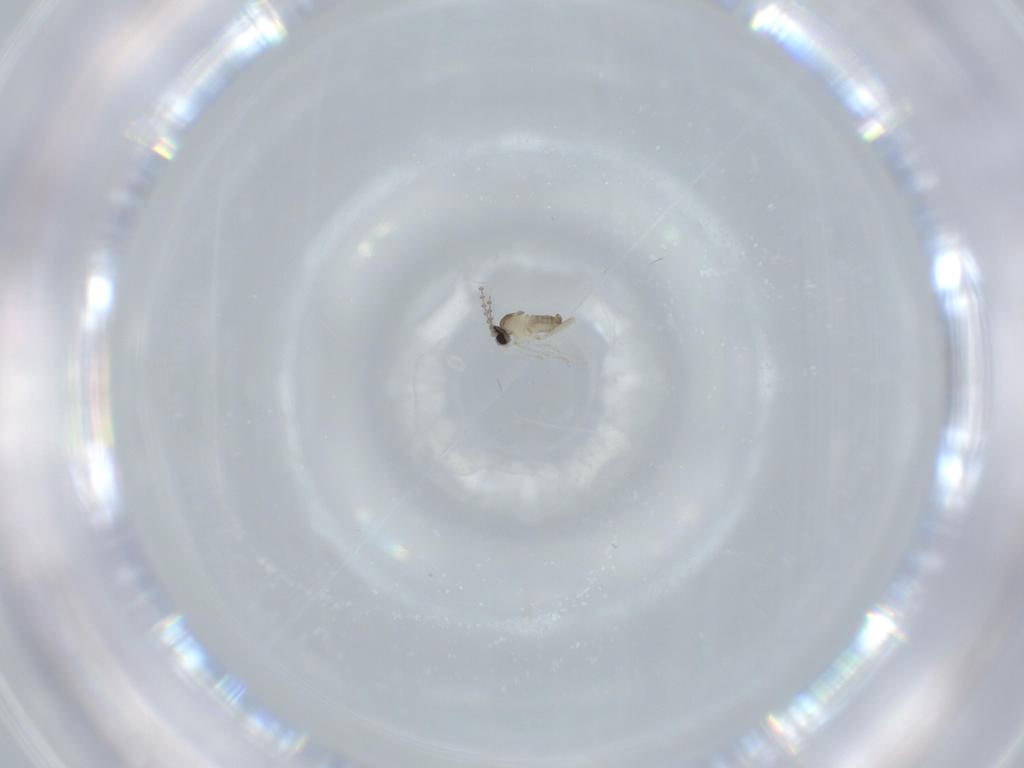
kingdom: Animalia
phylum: Arthropoda
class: Insecta
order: Diptera
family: Cecidomyiidae
